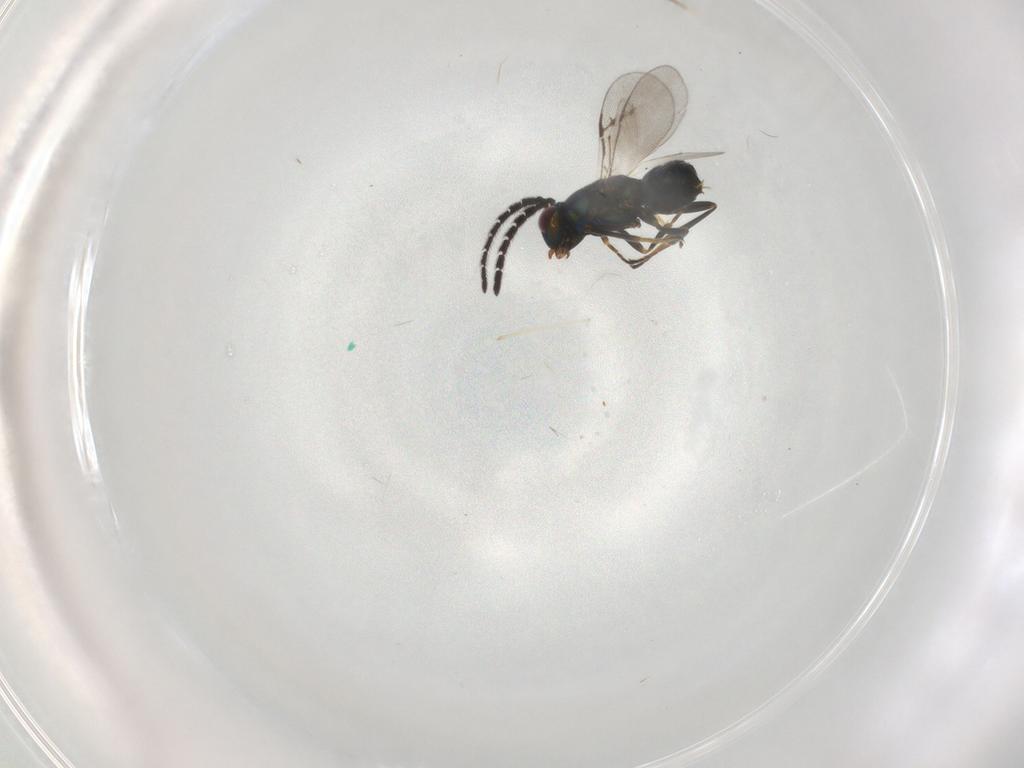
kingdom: Animalia
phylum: Arthropoda
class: Insecta
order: Hymenoptera
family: Encyrtidae
